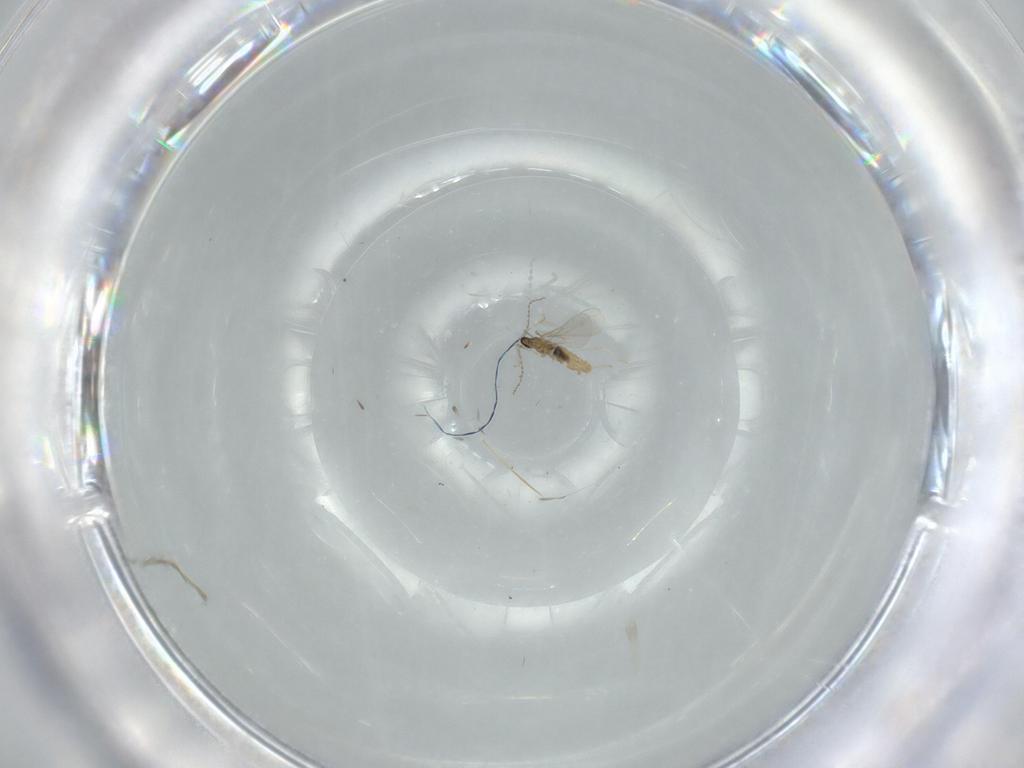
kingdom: Animalia
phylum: Arthropoda
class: Insecta
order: Diptera
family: Cecidomyiidae
